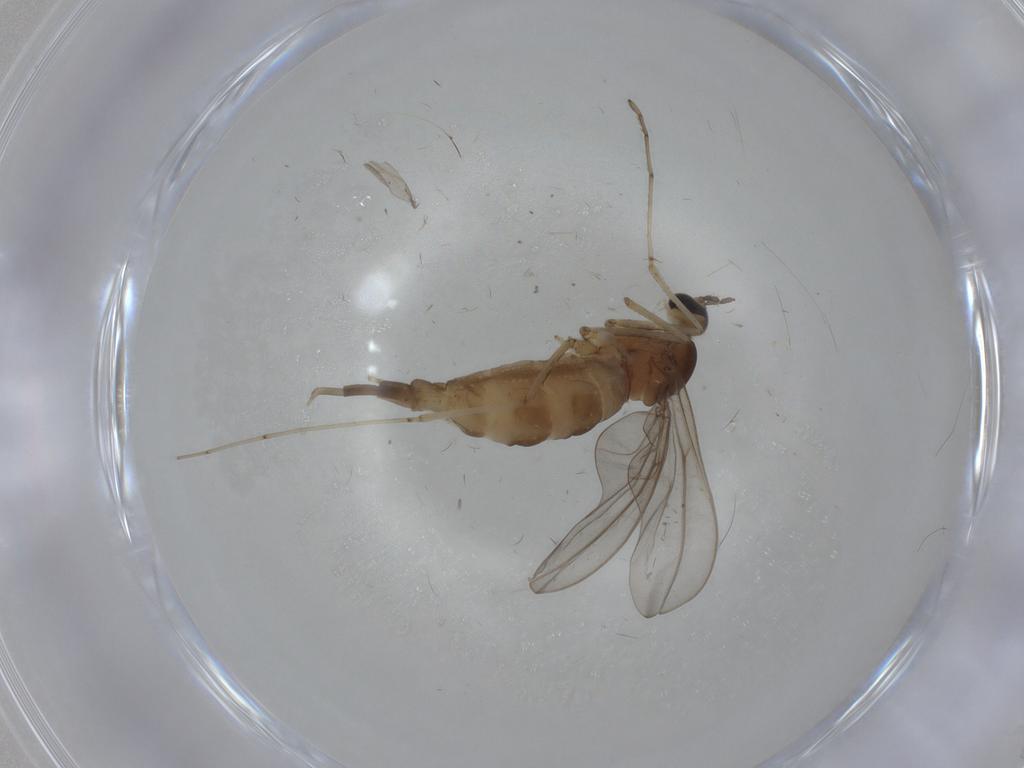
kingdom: Animalia
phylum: Arthropoda
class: Insecta
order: Diptera
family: Cecidomyiidae
